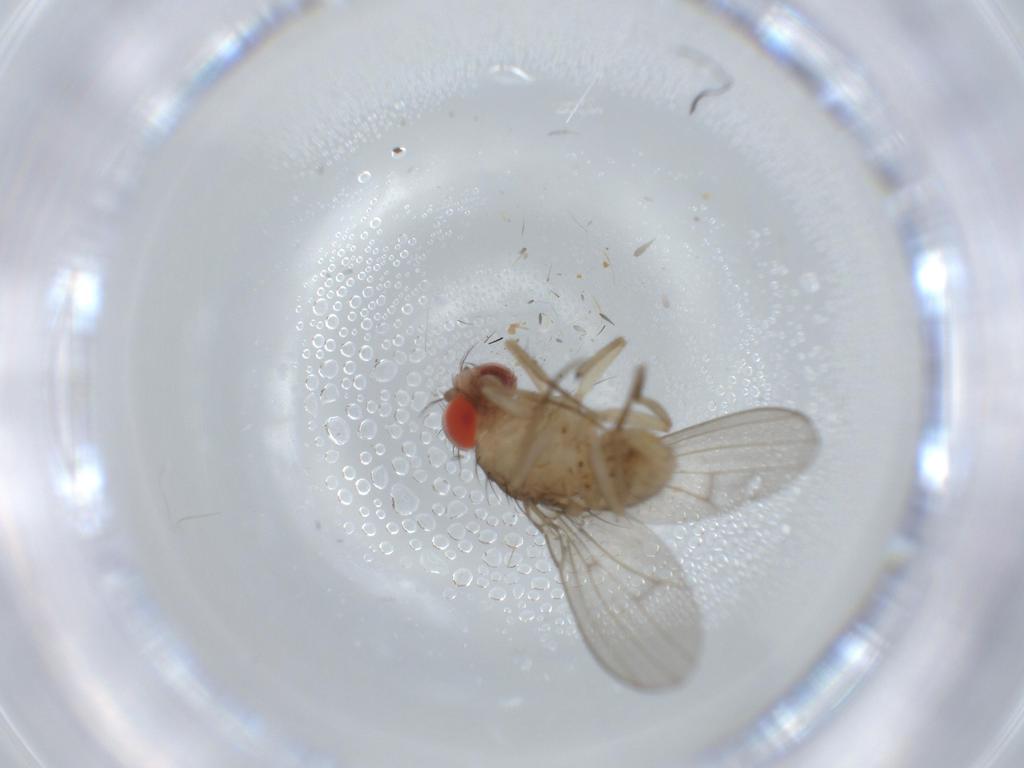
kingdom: Animalia
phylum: Arthropoda
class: Insecta
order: Diptera
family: Drosophilidae
